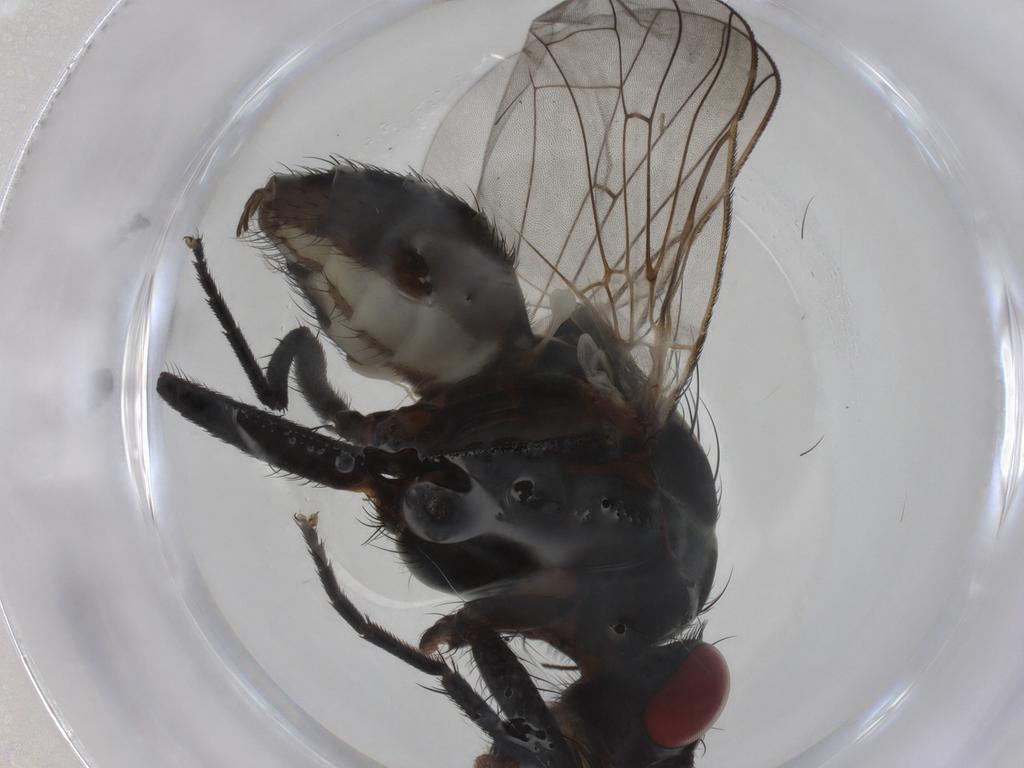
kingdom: Animalia
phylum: Arthropoda
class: Insecta
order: Diptera
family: Anthomyiidae
